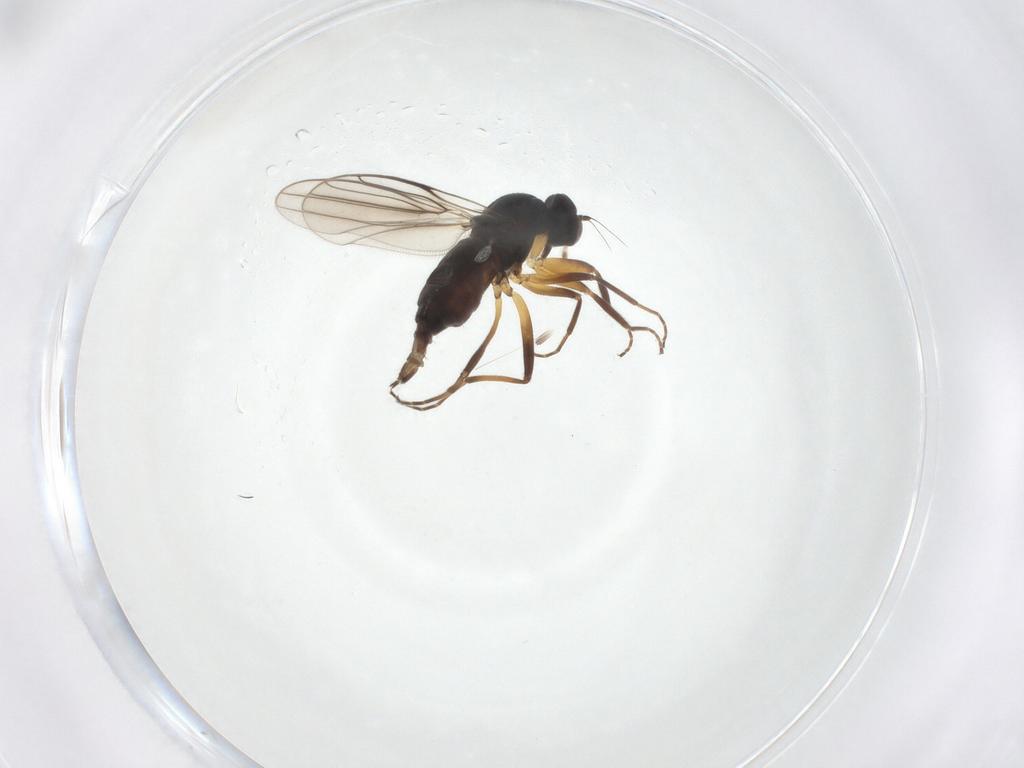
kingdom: Animalia
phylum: Arthropoda
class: Insecta
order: Diptera
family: Hybotidae
